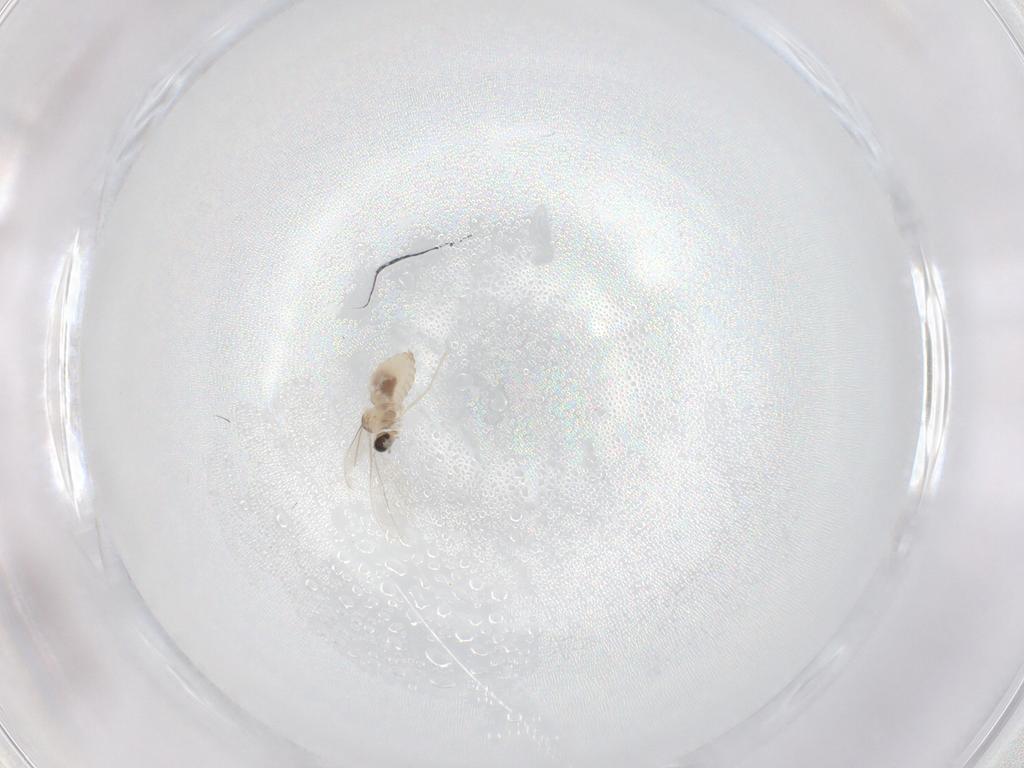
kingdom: Animalia
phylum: Arthropoda
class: Insecta
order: Diptera
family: Cecidomyiidae
